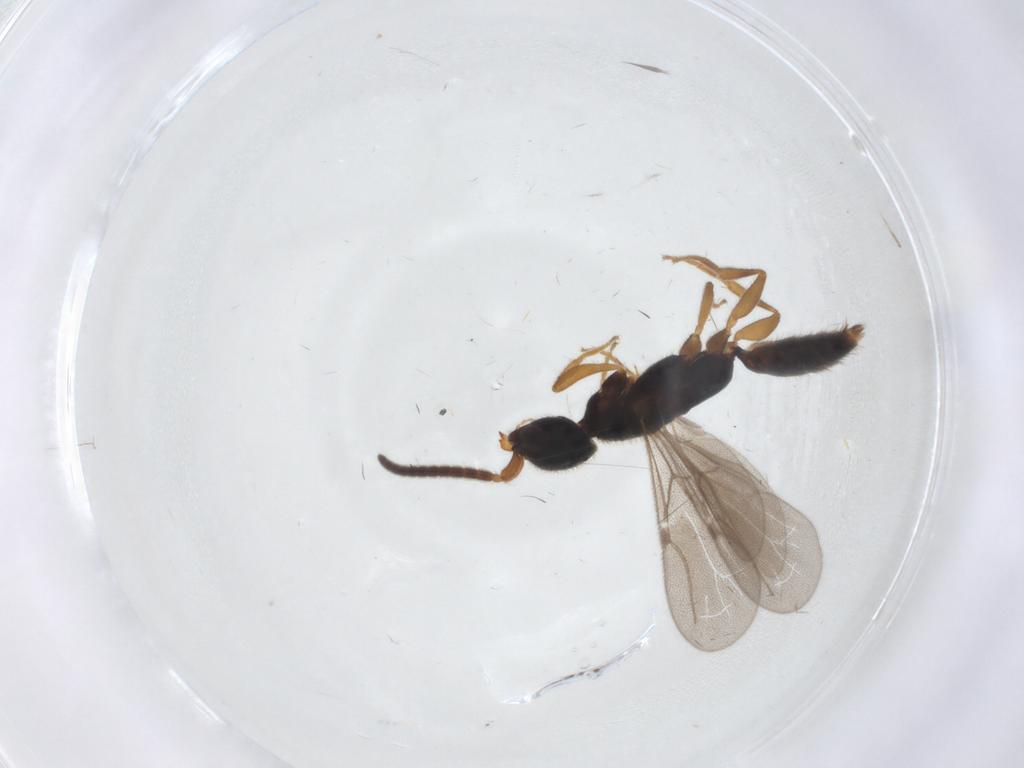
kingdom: Animalia
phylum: Arthropoda
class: Insecta
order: Hymenoptera
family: Bethylidae
